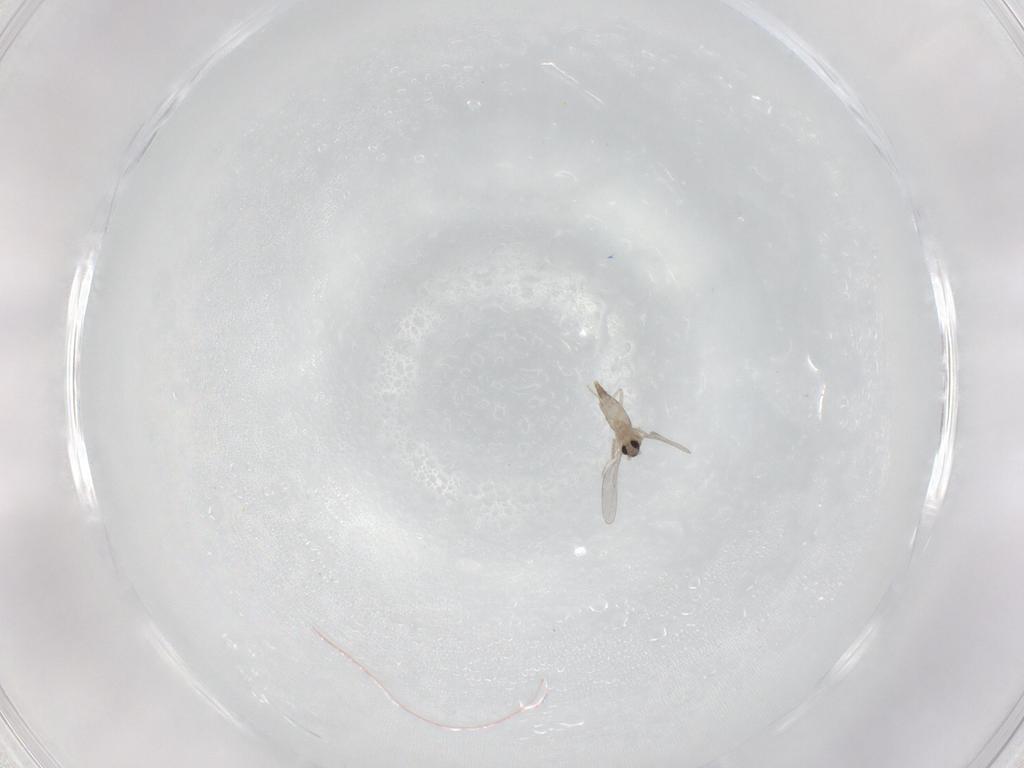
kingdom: Animalia
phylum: Arthropoda
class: Insecta
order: Diptera
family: Cecidomyiidae
